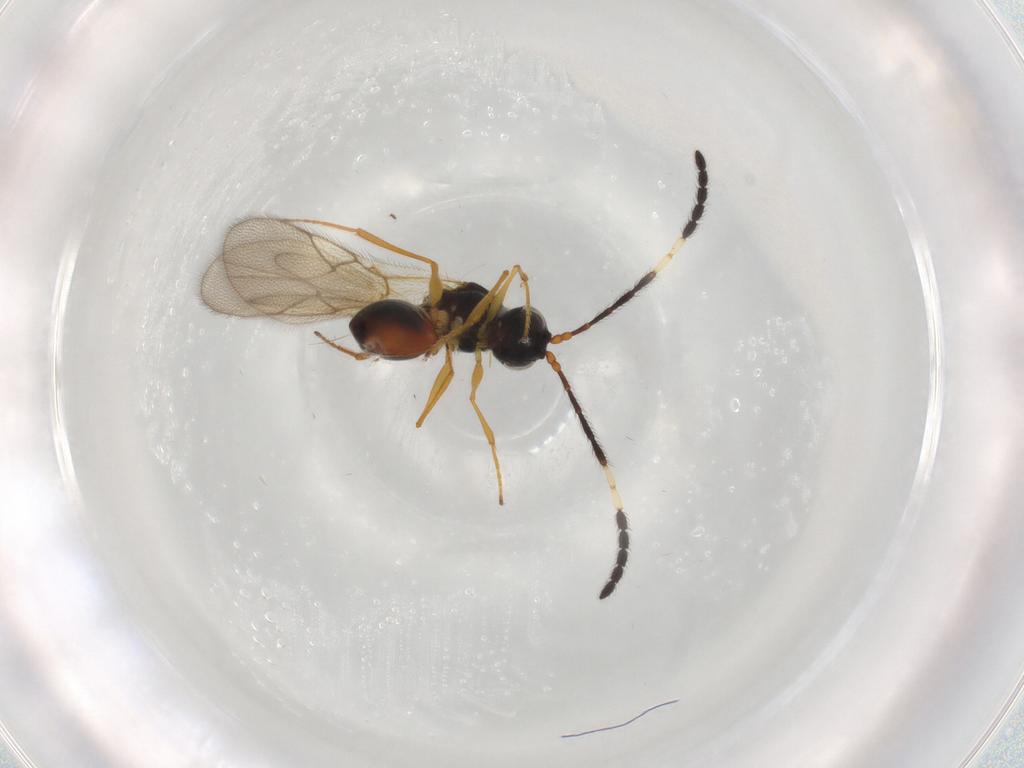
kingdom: Animalia
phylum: Arthropoda
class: Insecta
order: Hymenoptera
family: Figitidae
